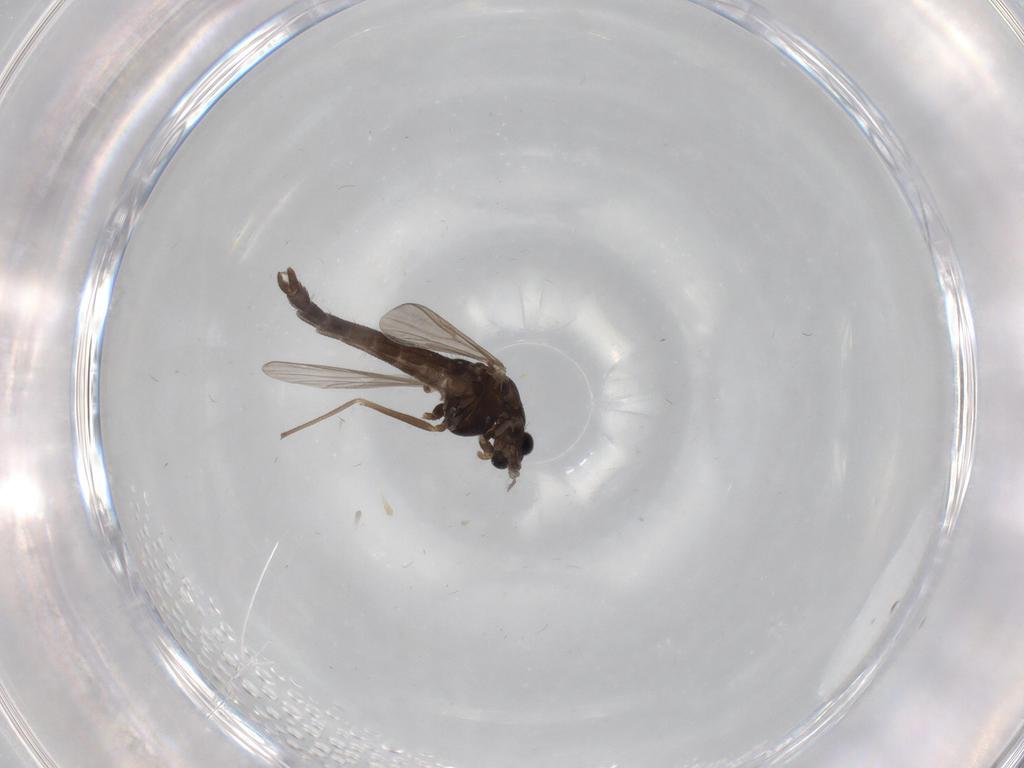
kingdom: Animalia
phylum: Arthropoda
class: Insecta
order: Diptera
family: Chironomidae
